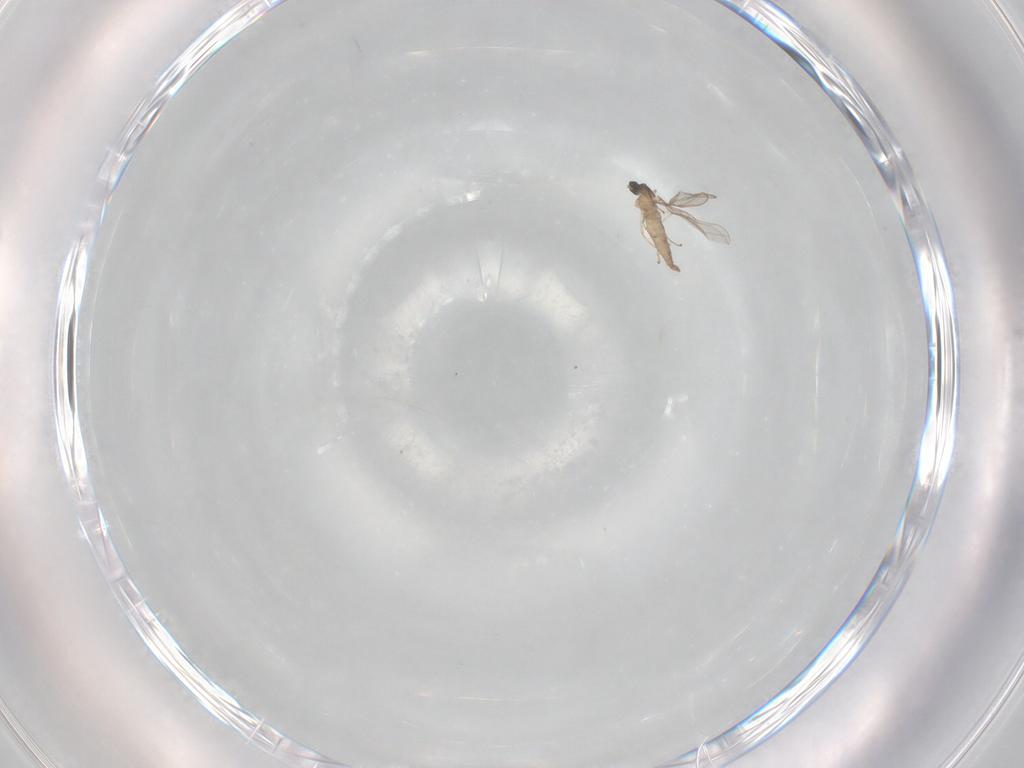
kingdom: Animalia
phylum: Arthropoda
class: Insecta
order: Diptera
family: Cecidomyiidae
